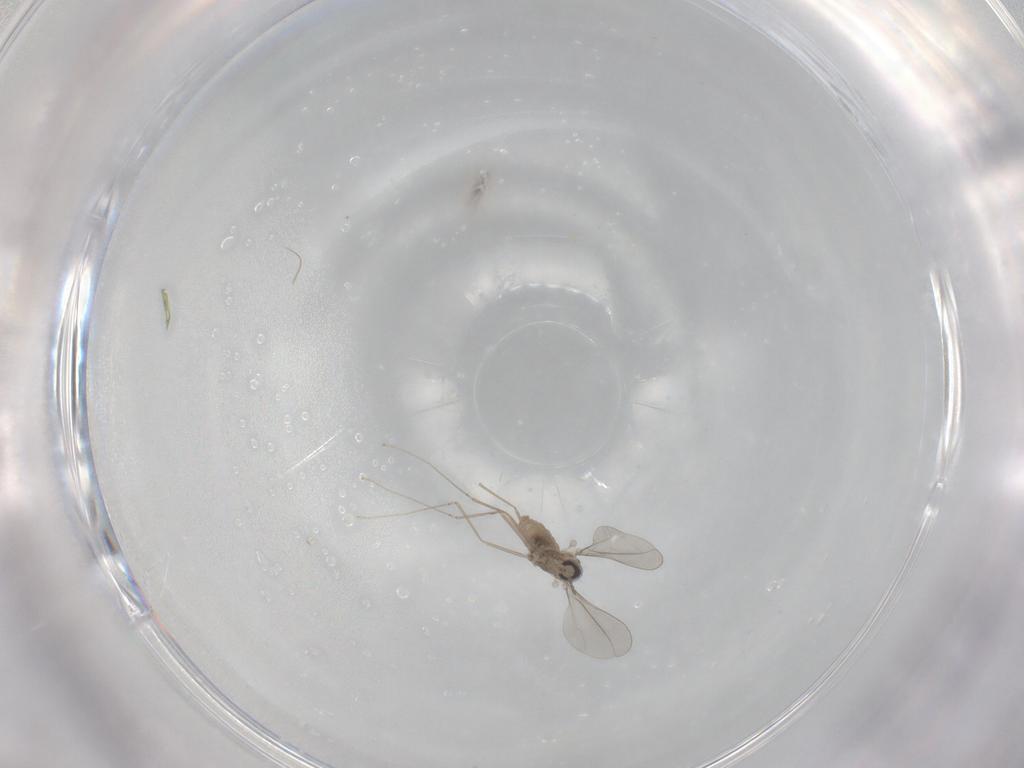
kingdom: Animalia
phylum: Arthropoda
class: Insecta
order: Diptera
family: Cecidomyiidae
